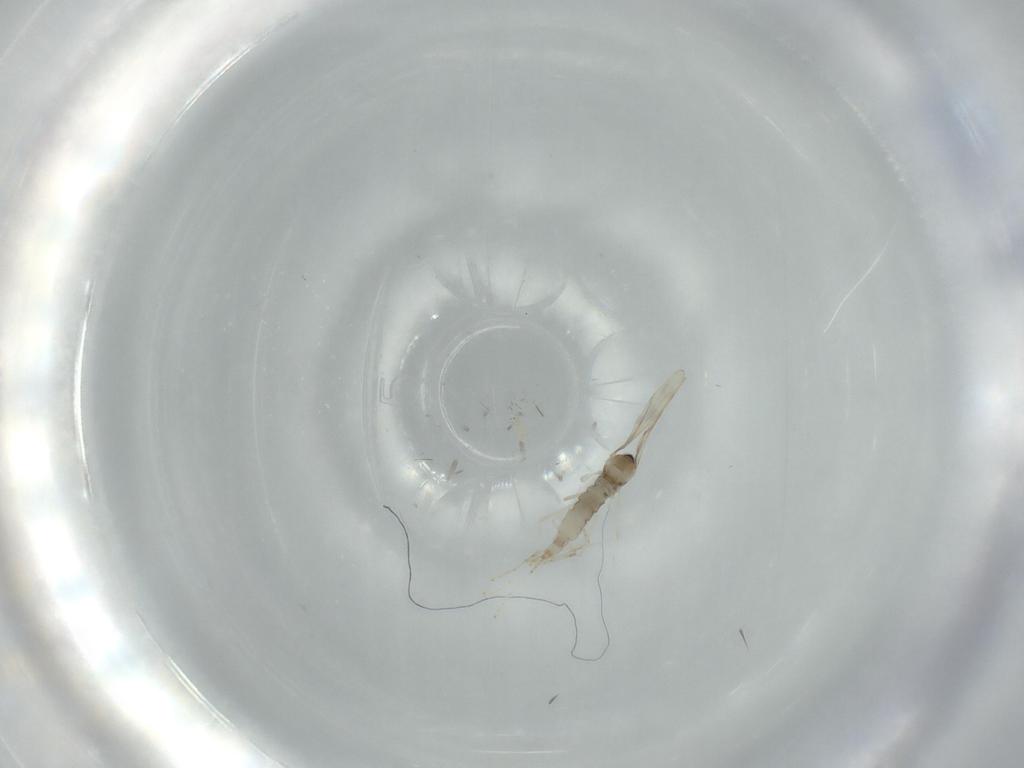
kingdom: Animalia
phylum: Arthropoda
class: Insecta
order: Diptera
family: Cecidomyiidae
